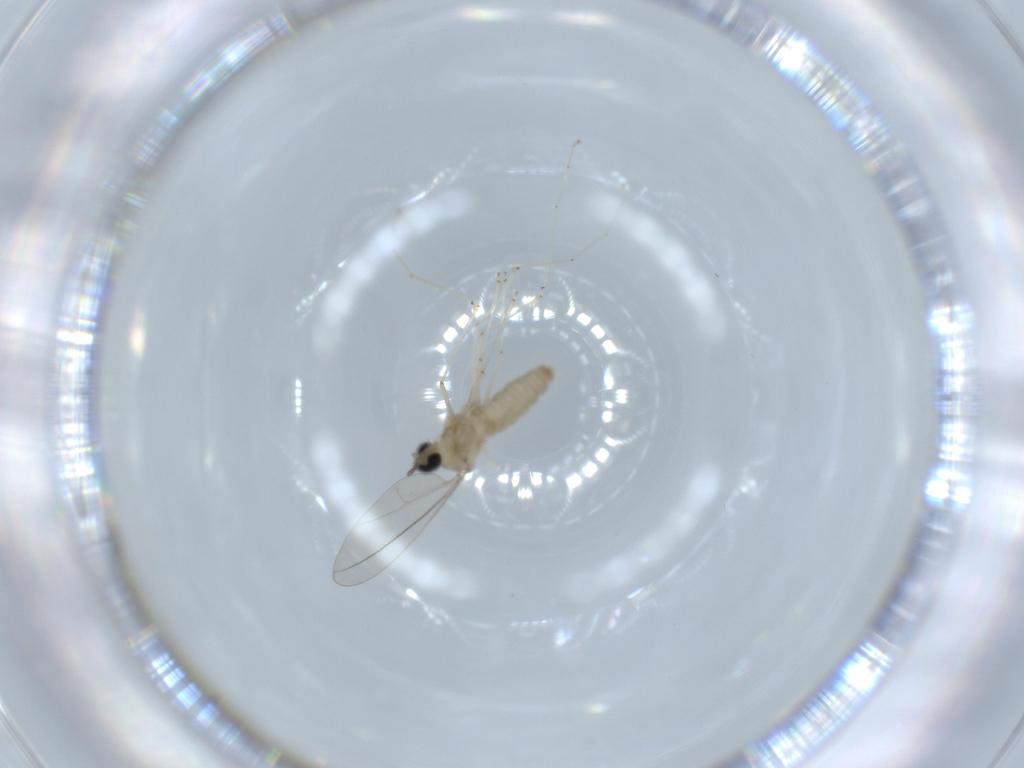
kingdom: Animalia
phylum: Arthropoda
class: Insecta
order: Diptera
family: Cecidomyiidae
